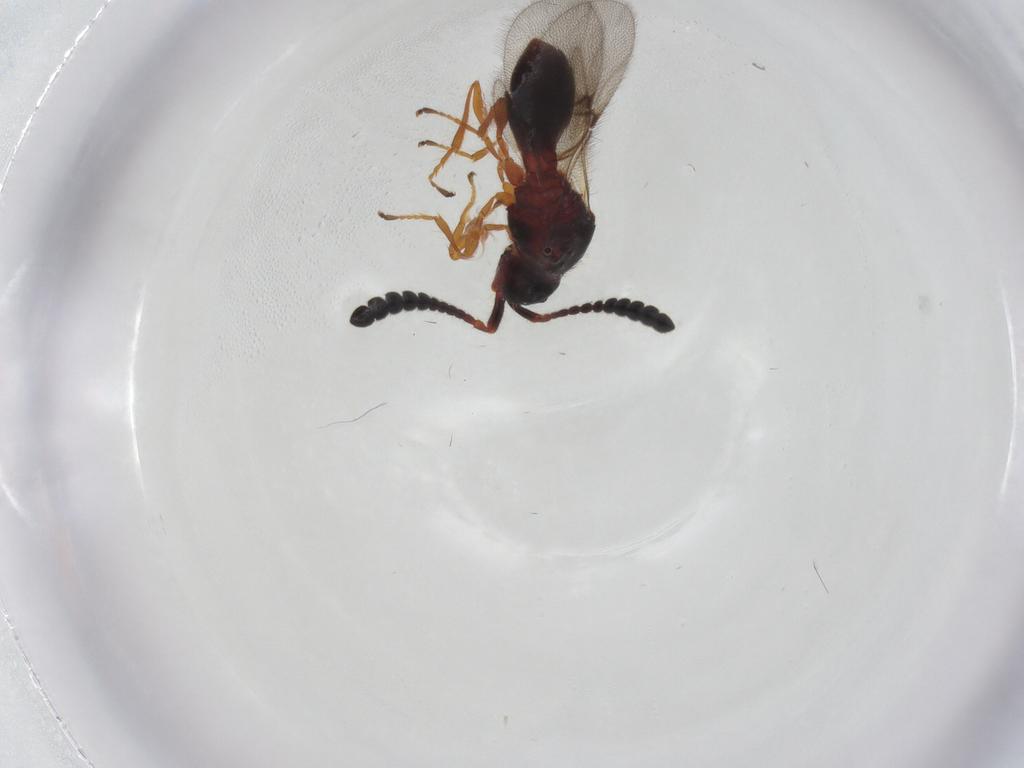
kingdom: Animalia
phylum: Arthropoda
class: Insecta
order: Hymenoptera
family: Diapriidae
